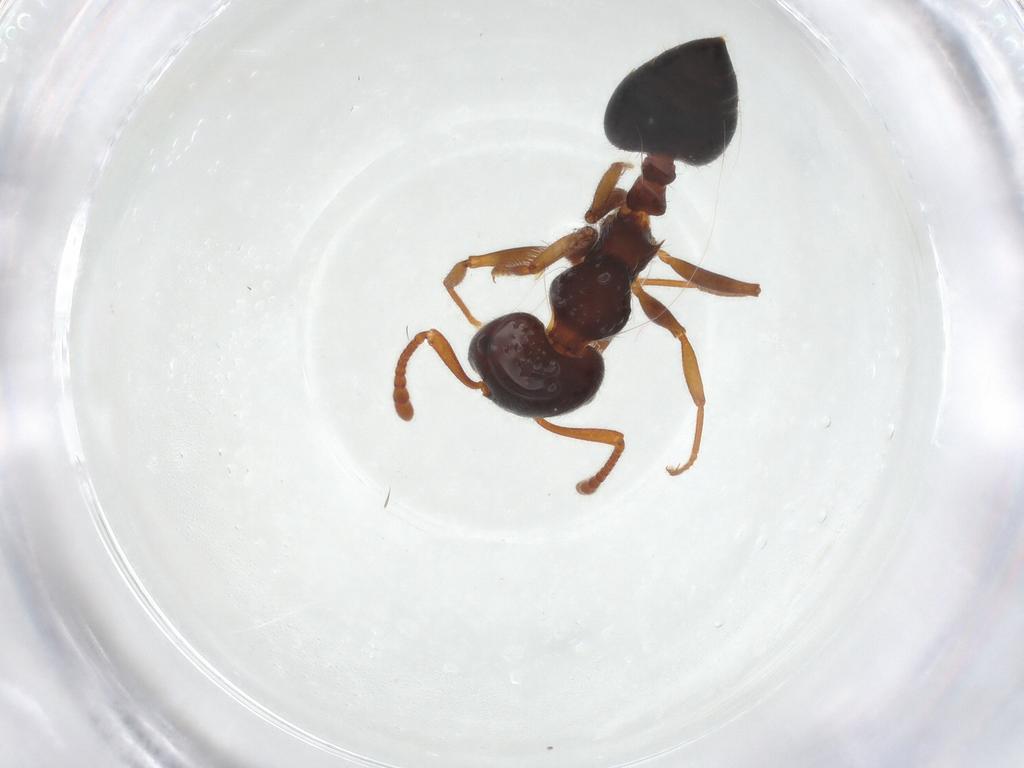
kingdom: Animalia
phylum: Arthropoda
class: Insecta
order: Hymenoptera
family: Formicidae
